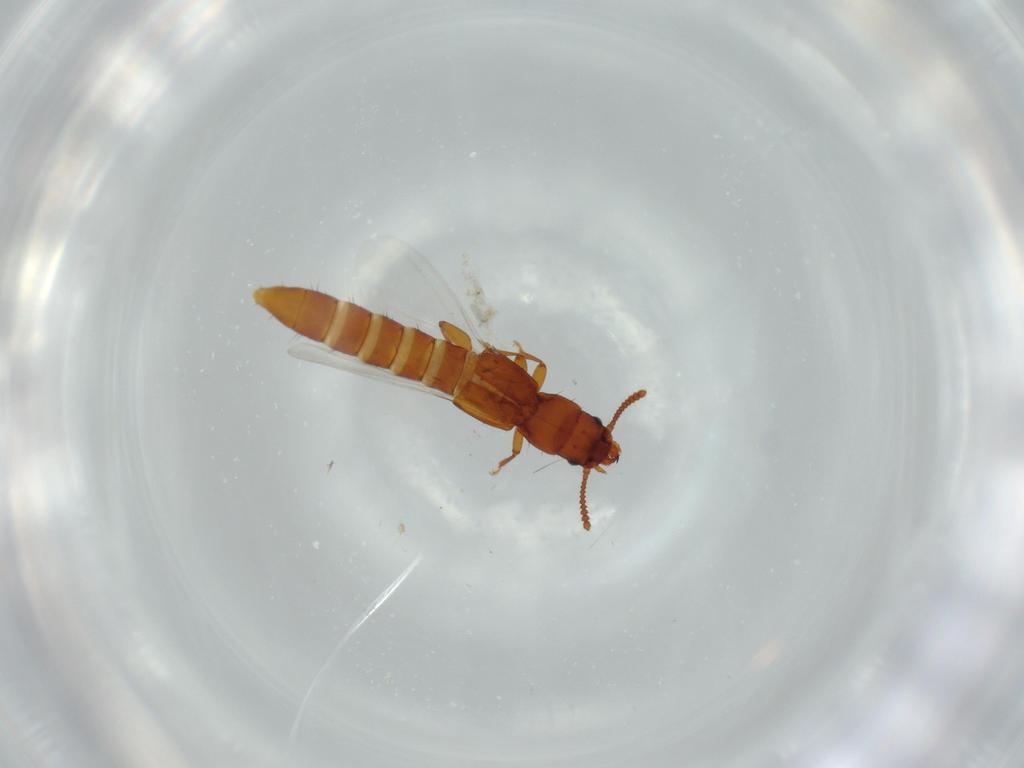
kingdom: Animalia
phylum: Arthropoda
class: Insecta
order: Coleoptera
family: Staphylinidae
